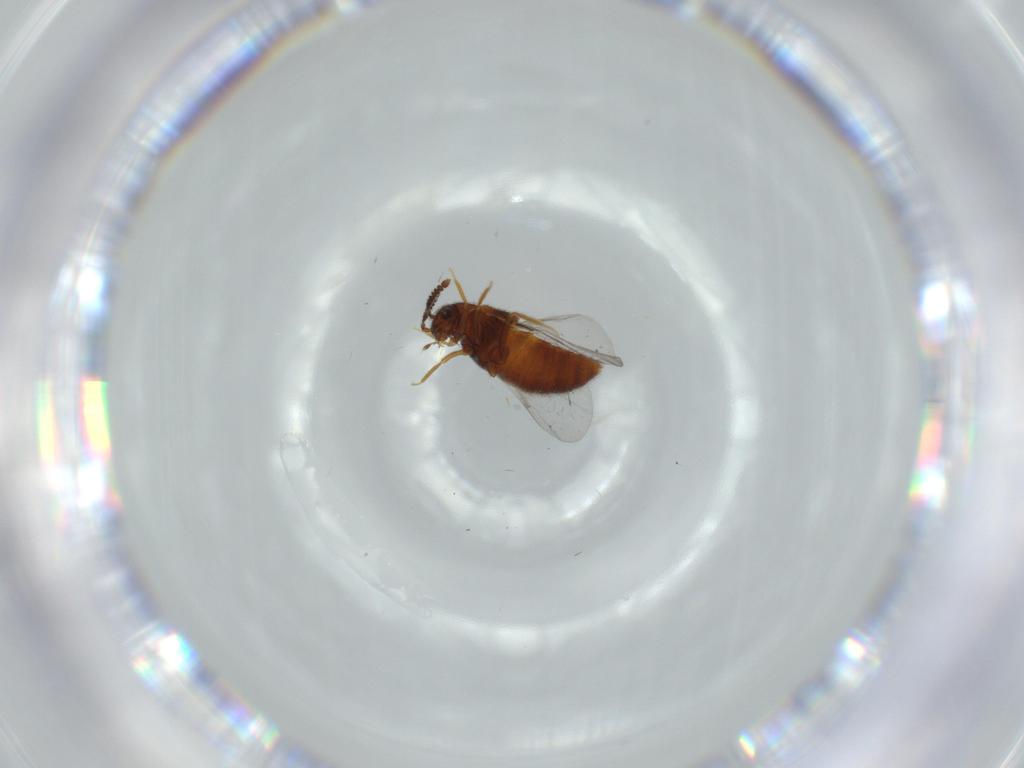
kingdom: Animalia
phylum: Arthropoda
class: Insecta
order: Coleoptera
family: Staphylinidae
